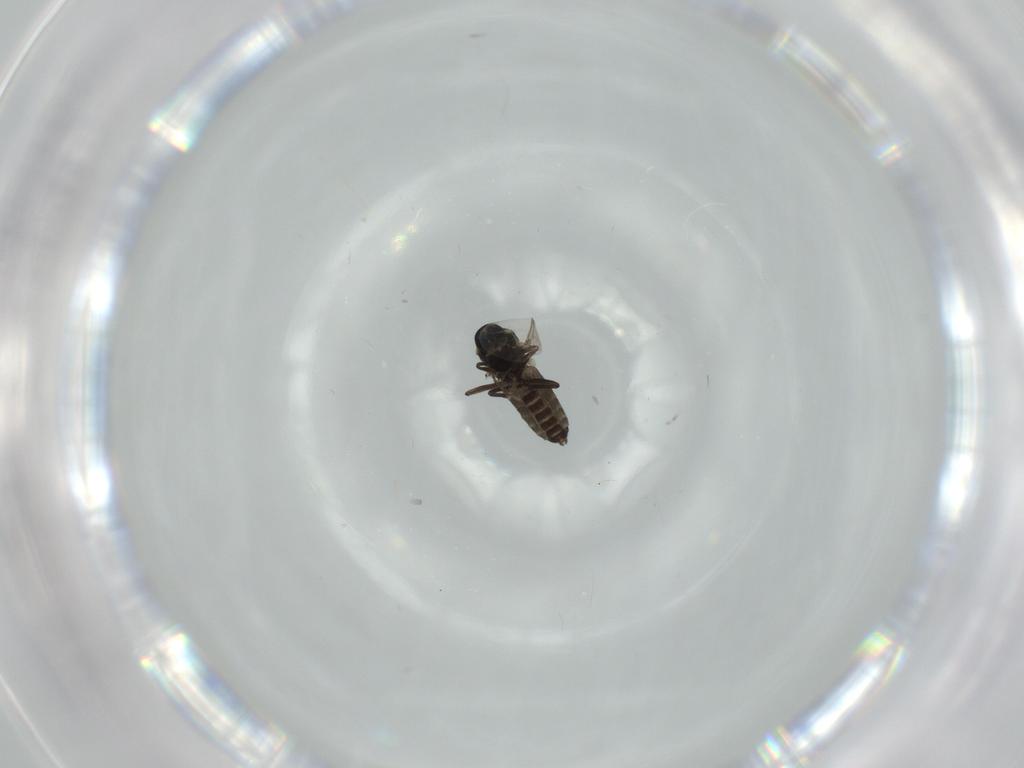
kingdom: Animalia
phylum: Arthropoda
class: Insecta
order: Diptera
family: Ceratopogonidae
